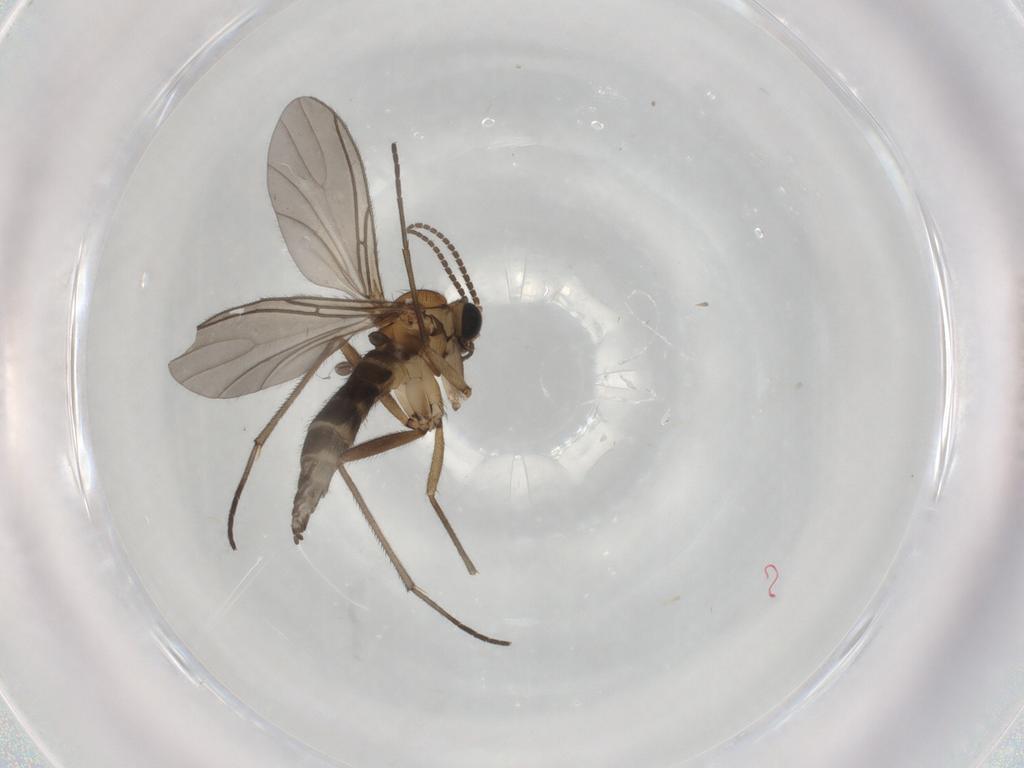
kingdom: Animalia
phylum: Arthropoda
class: Insecta
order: Diptera
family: Sciaridae
